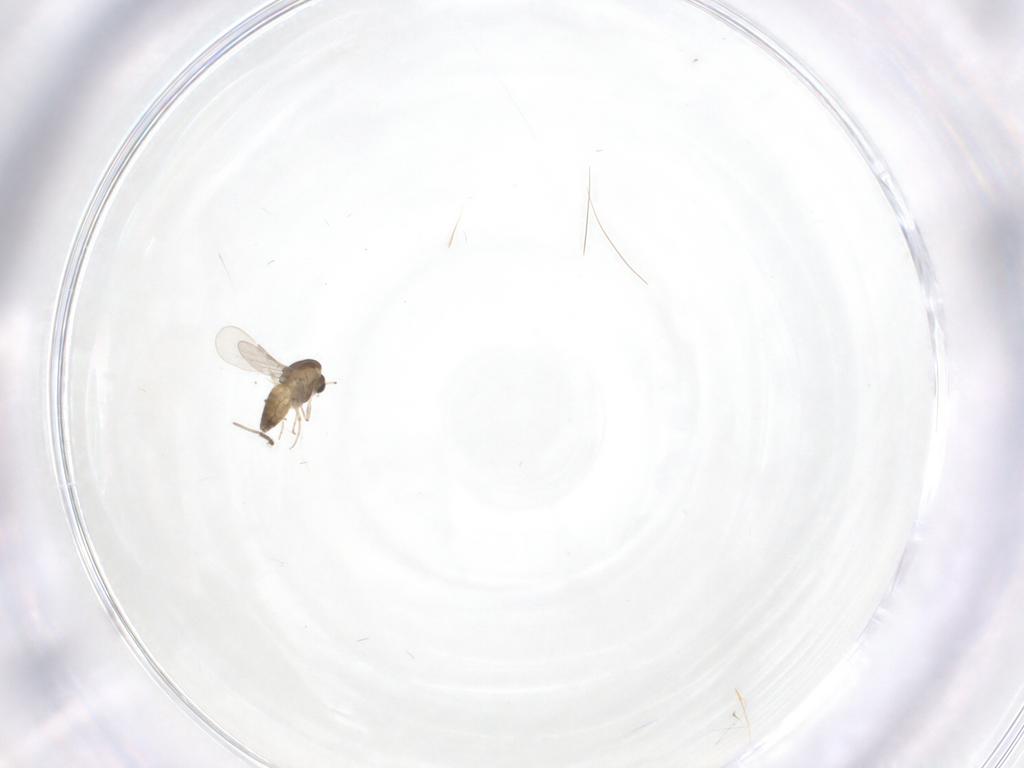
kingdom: Animalia
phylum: Arthropoda
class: Insecta
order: Diptera
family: Chironomidae
